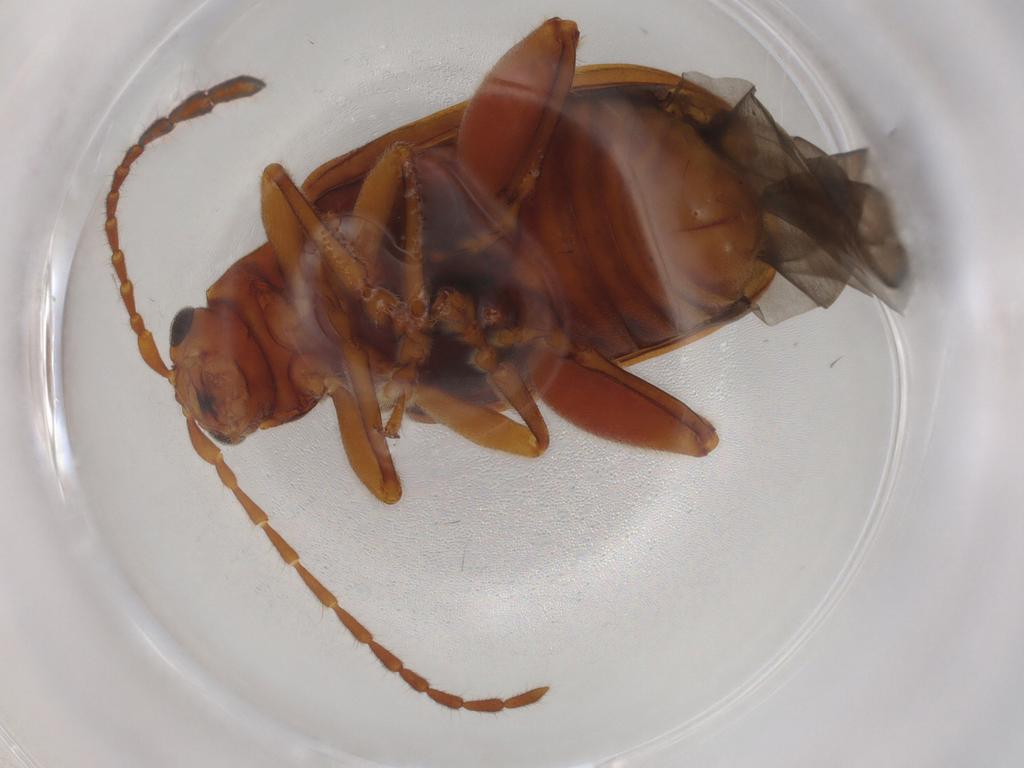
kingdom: Animalia
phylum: Arthropoda
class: Insecta
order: Coleoptera
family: Chrysomelidae
